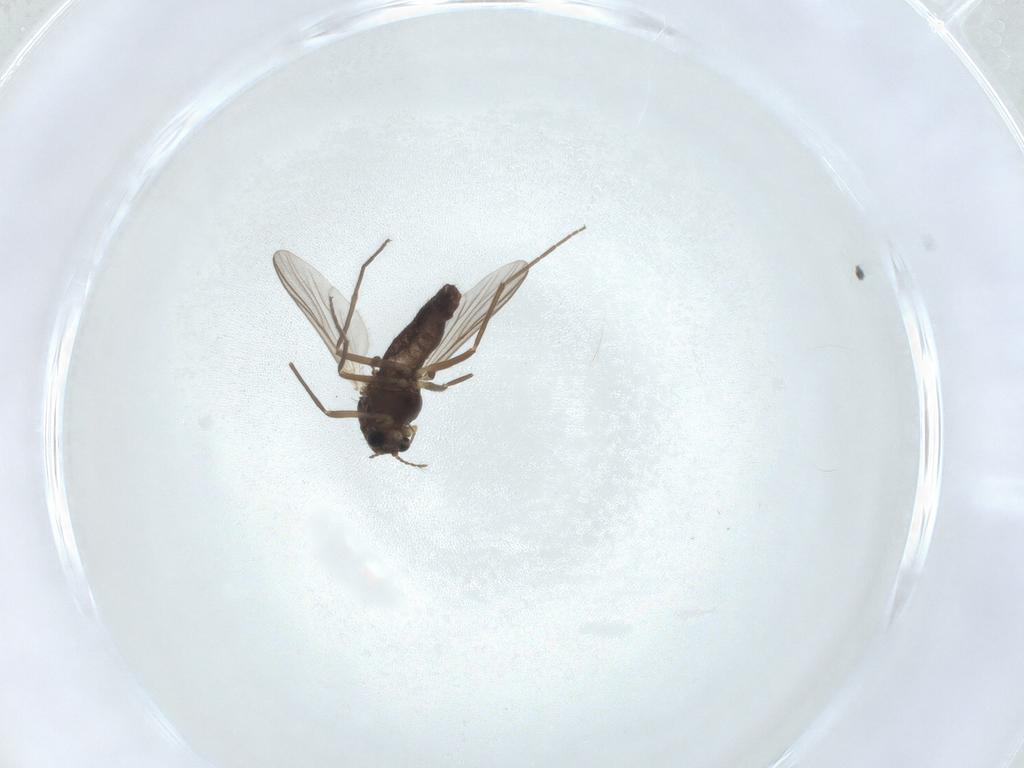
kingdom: Animalia
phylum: Arthropoda
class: Insecta
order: Diptera
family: Chironomidae
